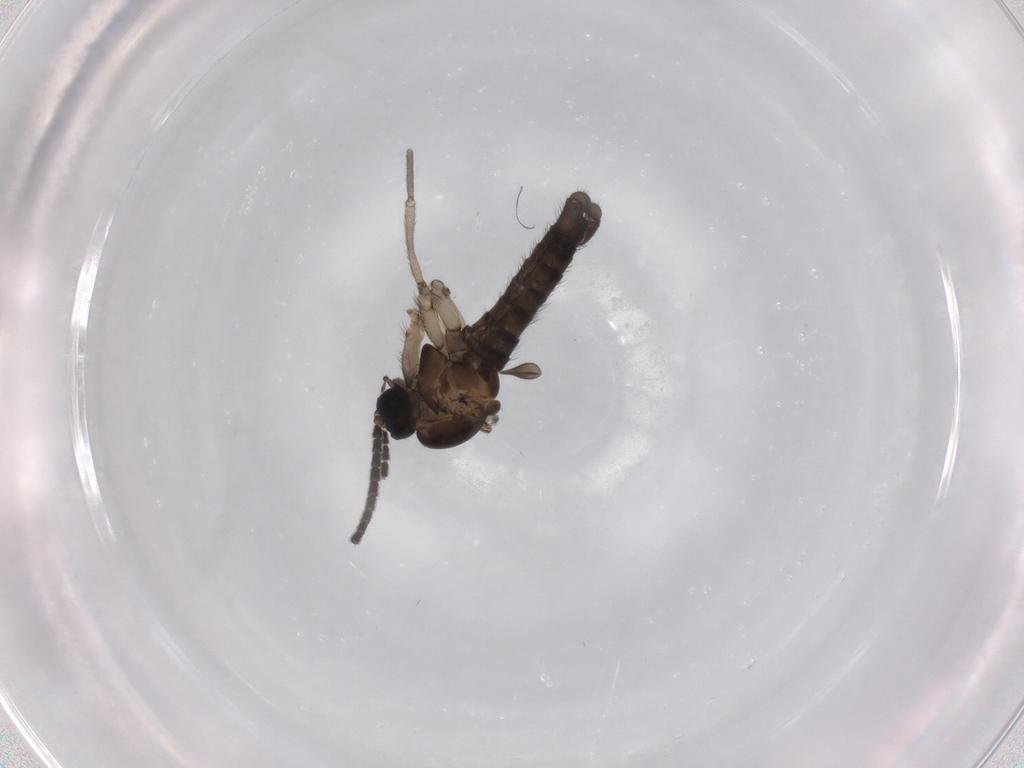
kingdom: Animalia
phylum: Arthropoda
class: Insecta
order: Diptera
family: Sciaridae
